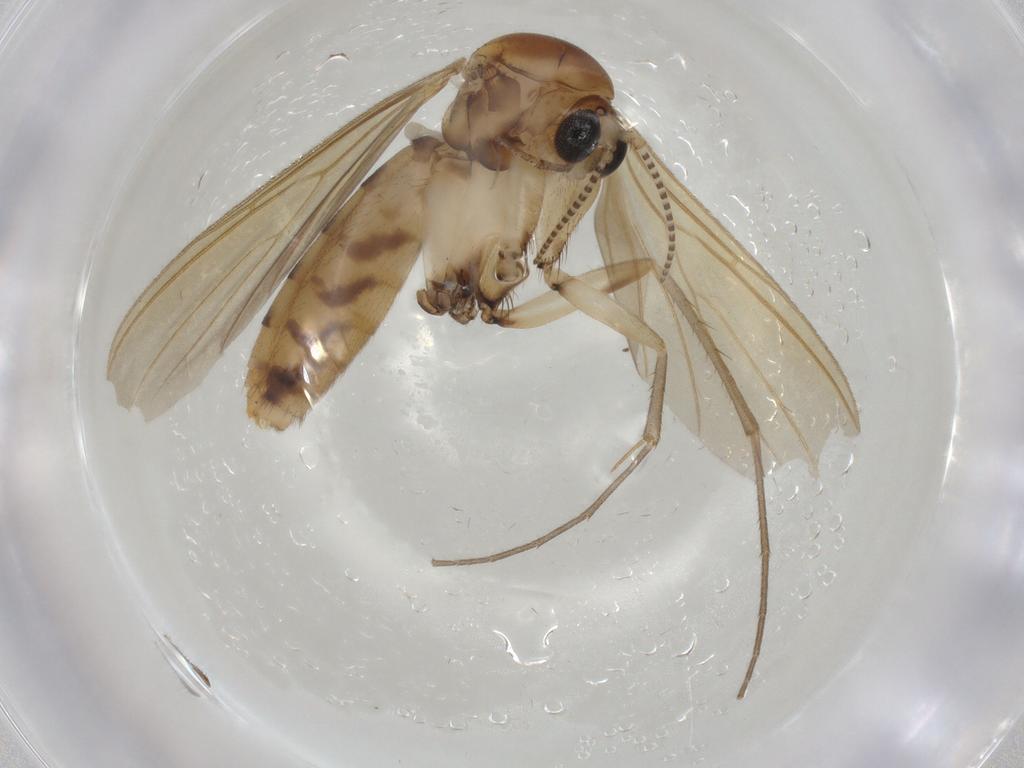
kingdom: Animalia
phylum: Arthropoda
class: Insecta
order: Diptera
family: Mycetophilidae
